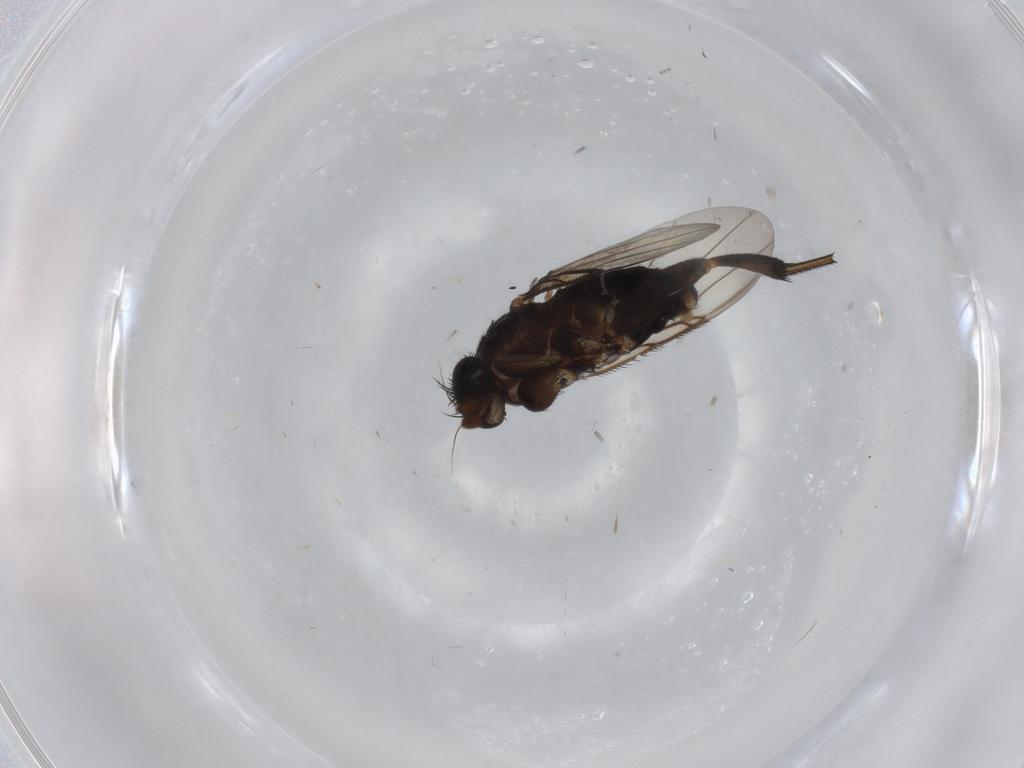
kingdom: Animalia
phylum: Arthropoda
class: Insecta
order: Diptera
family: Phoridae
